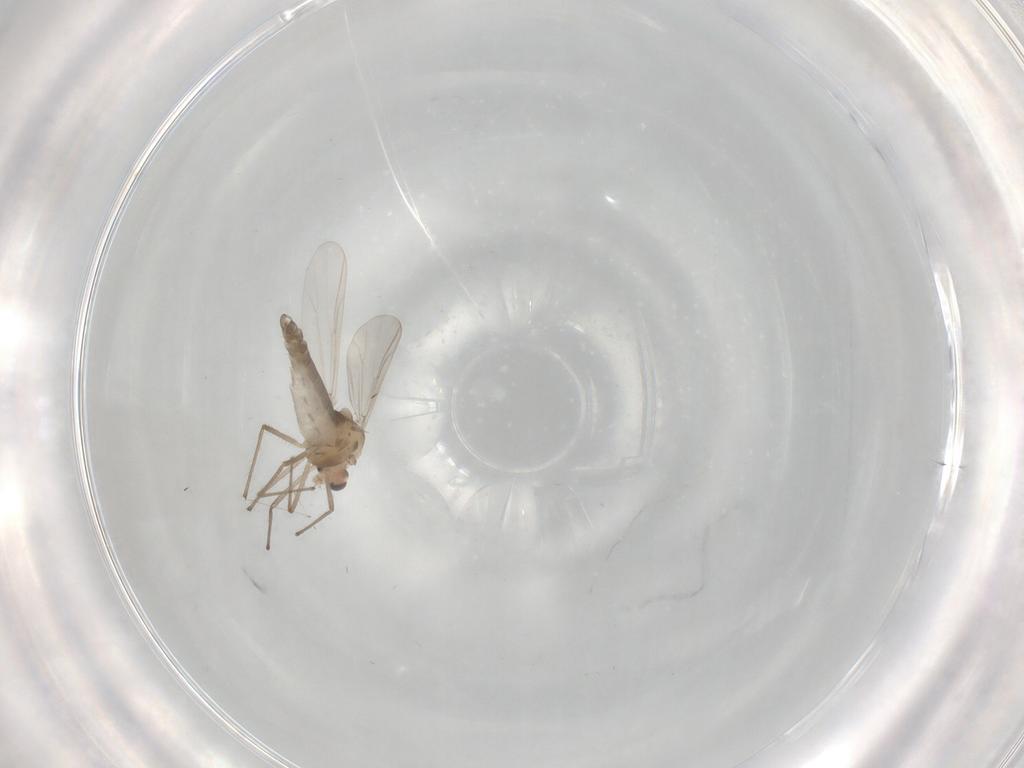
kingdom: Animalia
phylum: Arthropoda
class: Insecta
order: Diptera
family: Chironomidae
